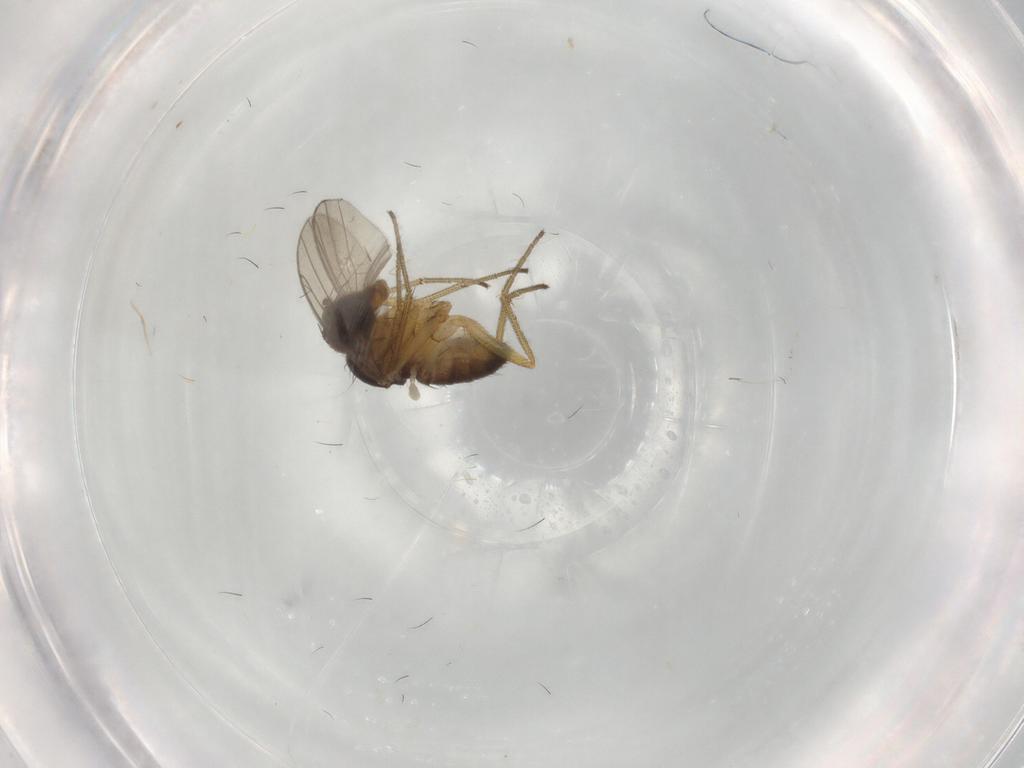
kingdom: Animalia
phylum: Arthropoda
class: Insecta
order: Diptera
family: Dolichopodidae
